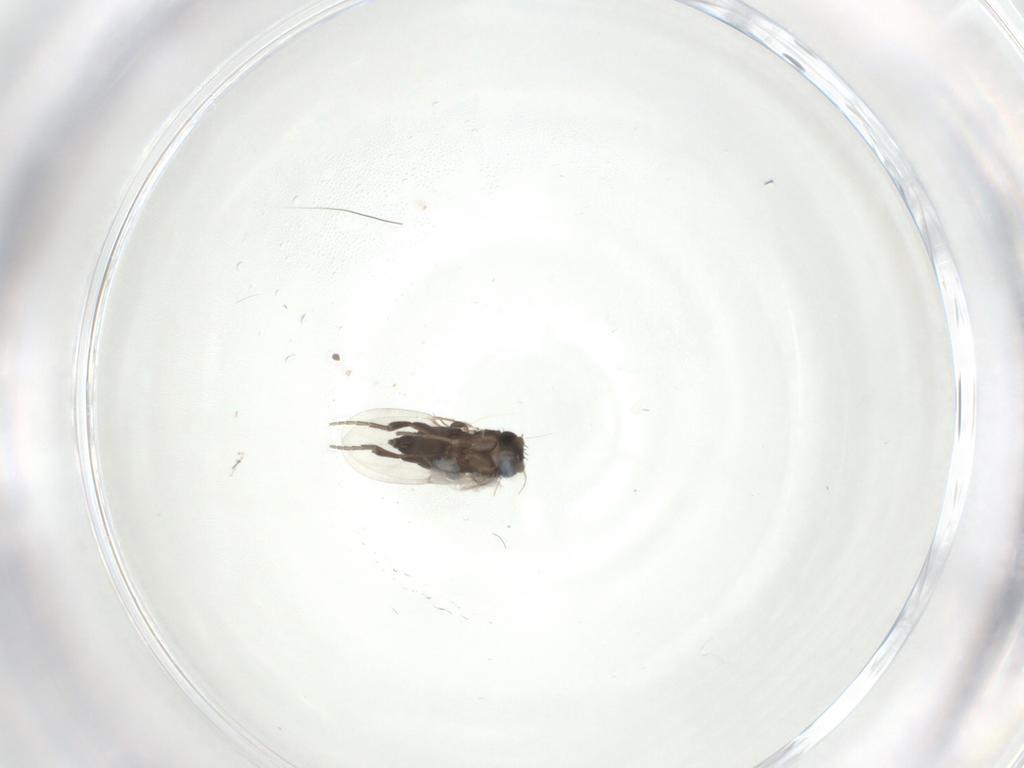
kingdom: Animalia
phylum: Arthropoda
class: Insecta
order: Diptera
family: Phoridae
